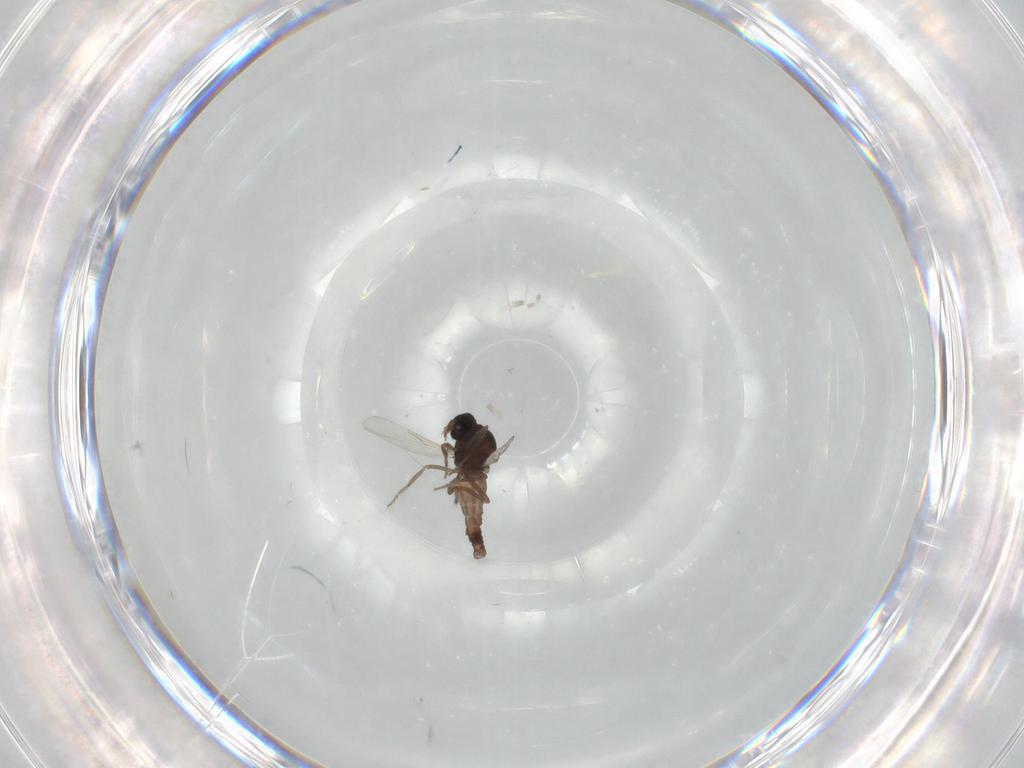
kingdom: Animalia
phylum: Arthropoda
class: Insecta
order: Diptera
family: Ceratopogonidae
